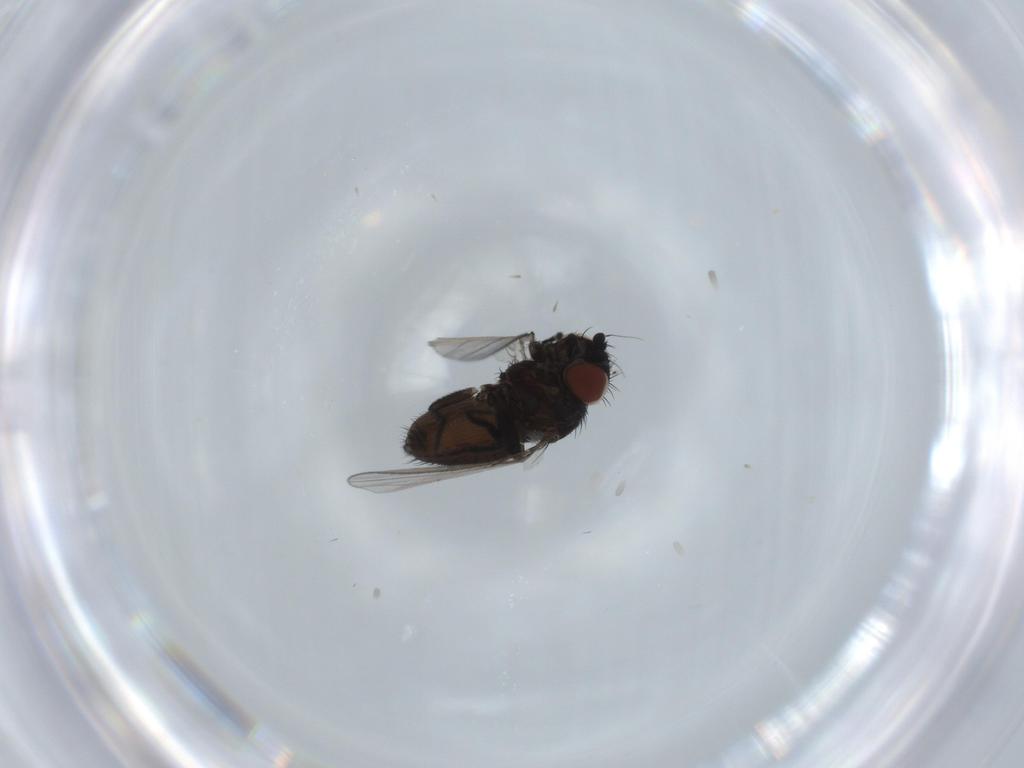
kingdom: Animalia
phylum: Arthropoda
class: Insecta
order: Diptera
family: Milichiidae
